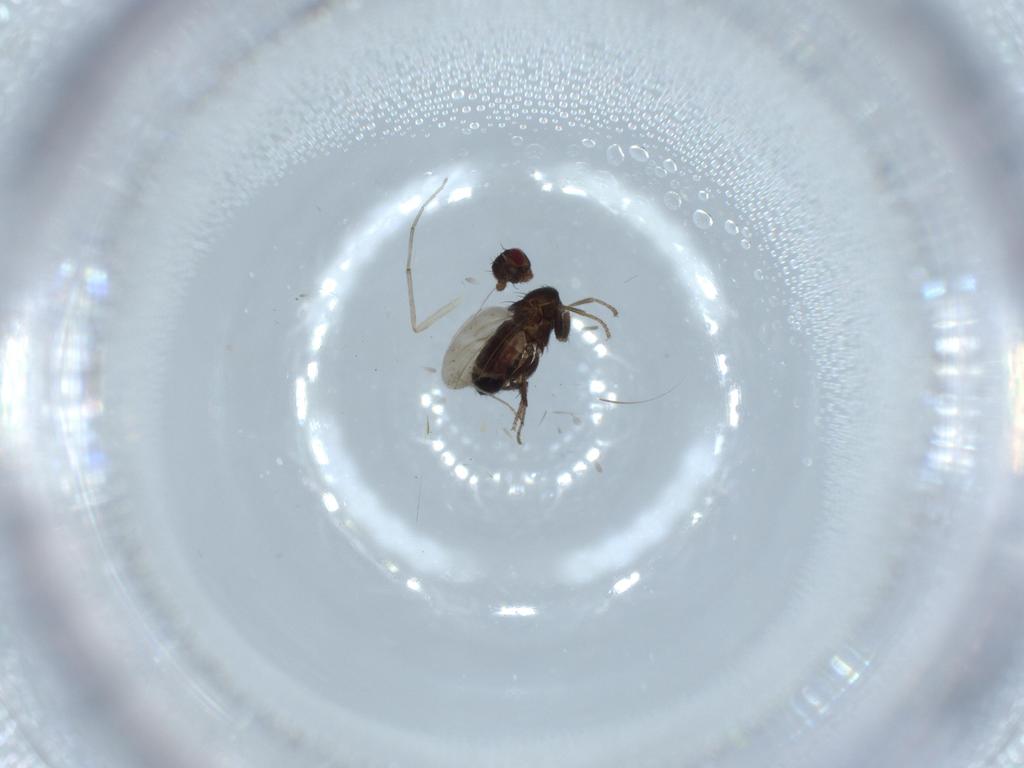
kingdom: Animalia
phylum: Arthropoda
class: Insecta
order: Diptera
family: Sphaeroceridae
